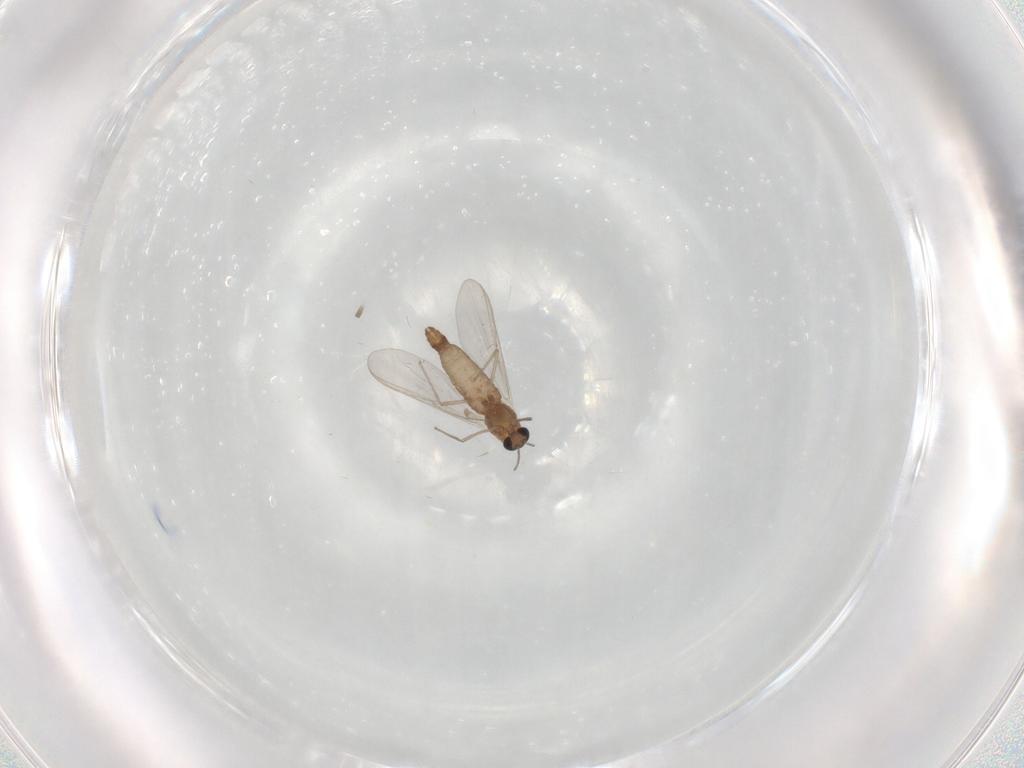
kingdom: Animalia
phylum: Arthropoda
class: Insecta
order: Diptera
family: Chironomidae
